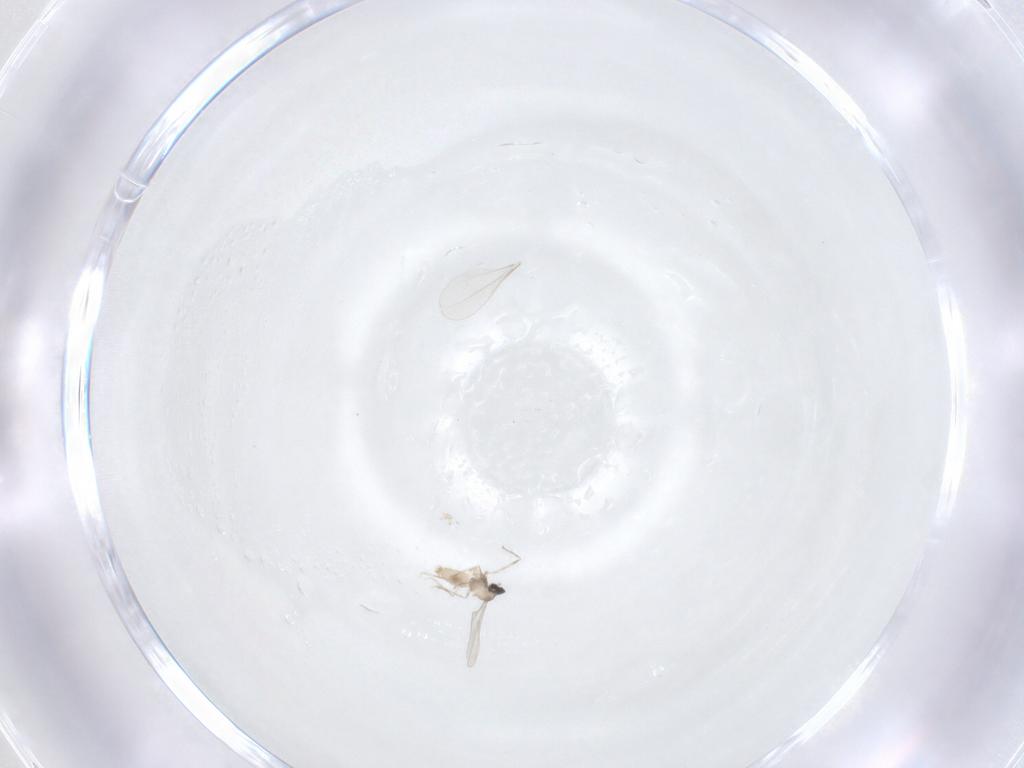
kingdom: Animalia
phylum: Arthropoda
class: Insecta
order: Diptera
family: Cecidomyiidae
